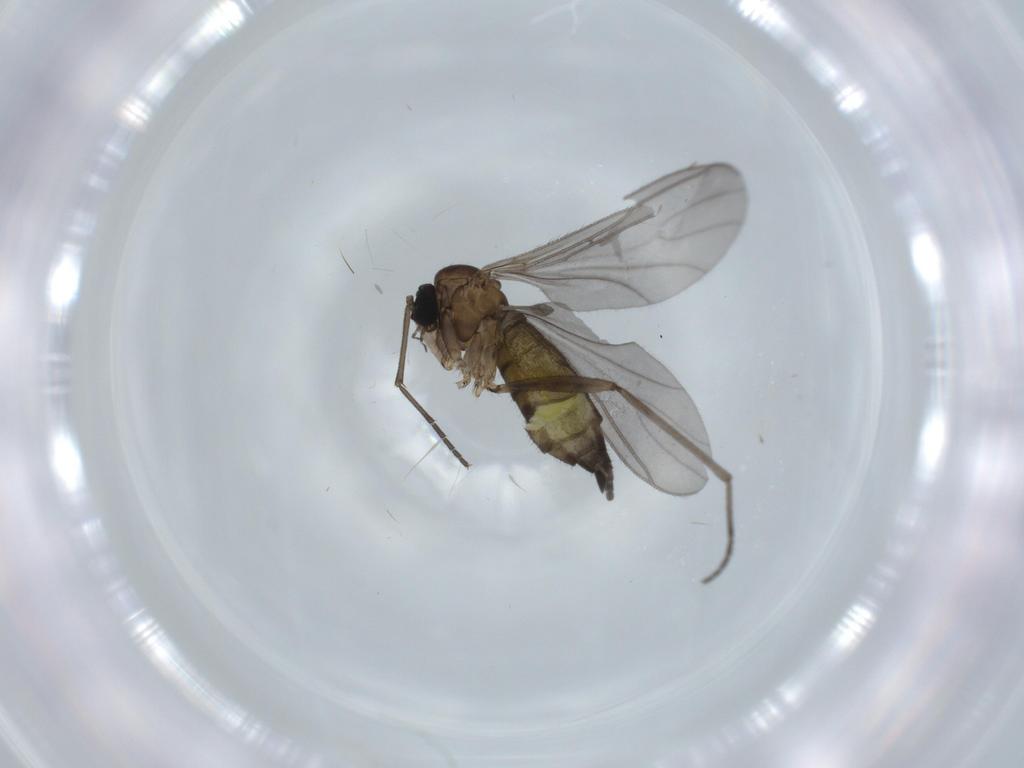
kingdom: Animalia
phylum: Arthropoda
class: Insecta
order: Diptera
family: Sciaridae
